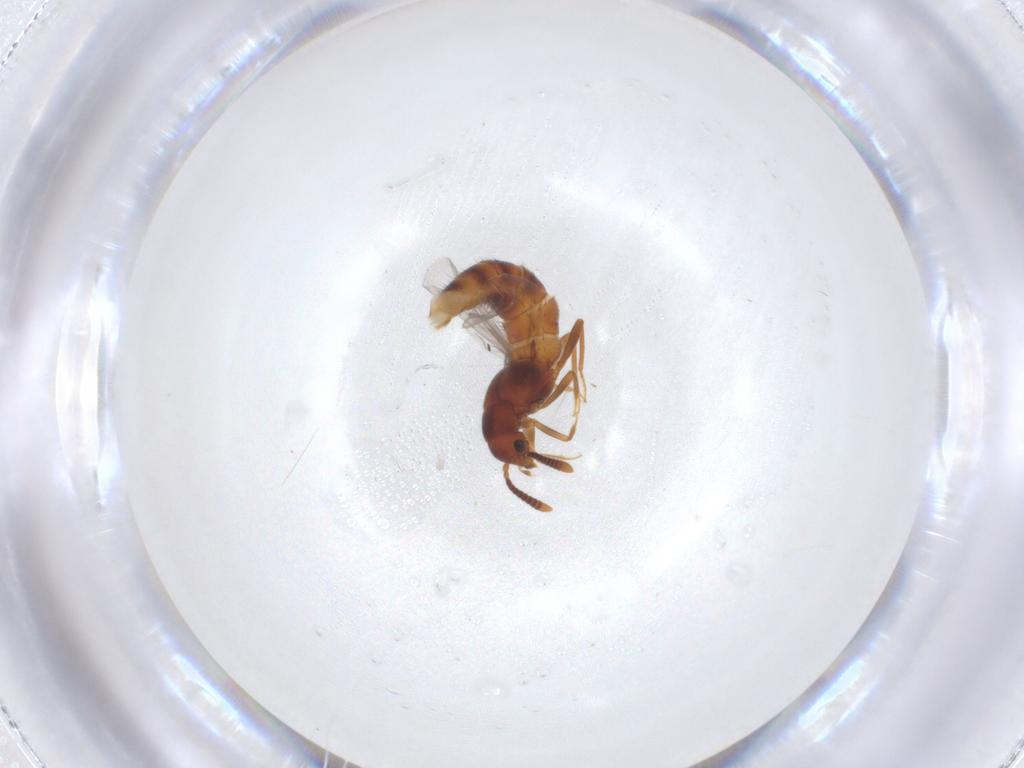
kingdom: Animalia
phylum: Arthropoda
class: Insecta
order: Coleoptera
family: Staphylinidae
